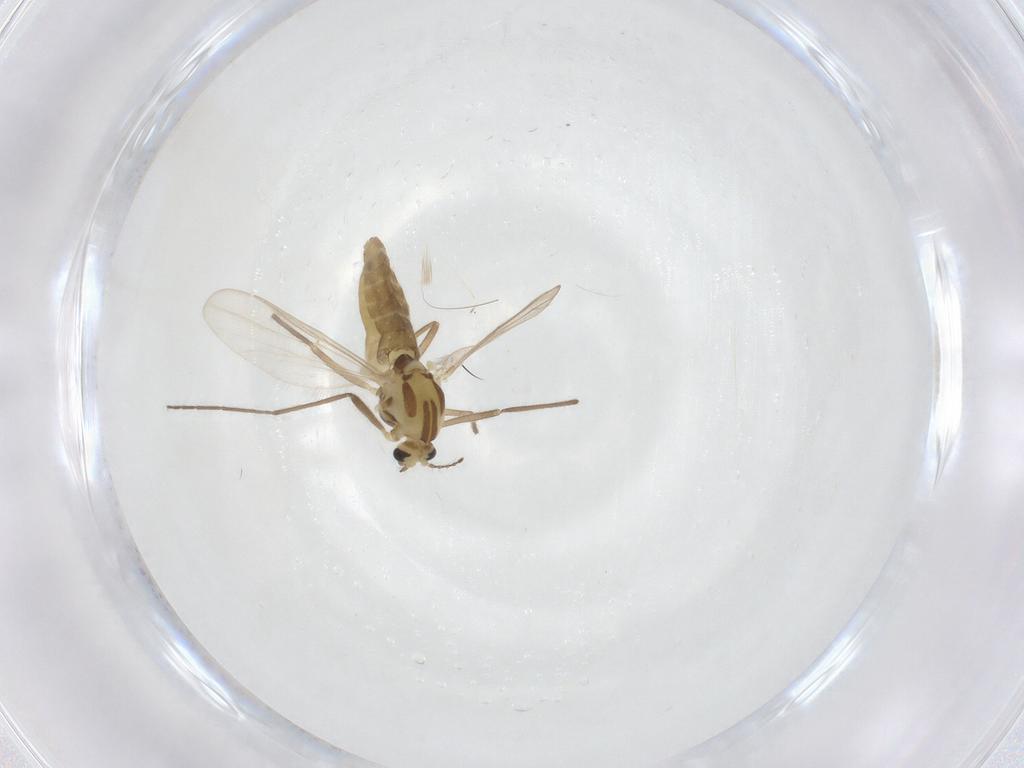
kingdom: Animalia
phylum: Arthropoda
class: Insecta
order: Diptera
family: Chironomidae
